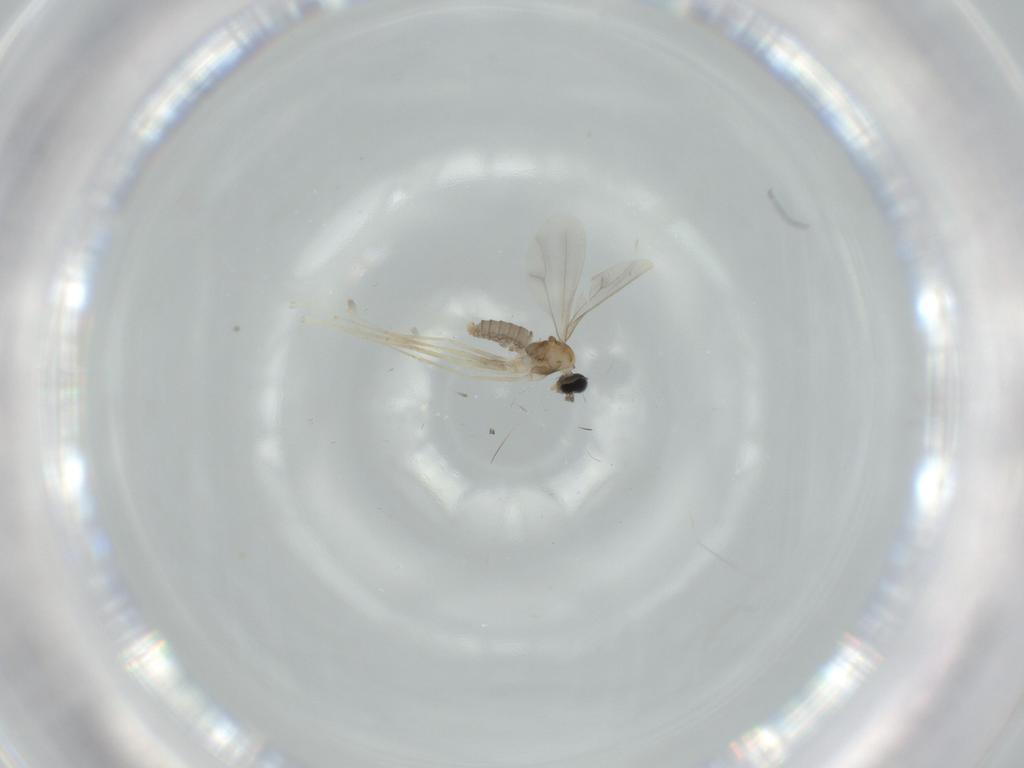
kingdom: Animalia
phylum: Arthropoda
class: Insecta
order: Diptera
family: Cecidomyiidae
